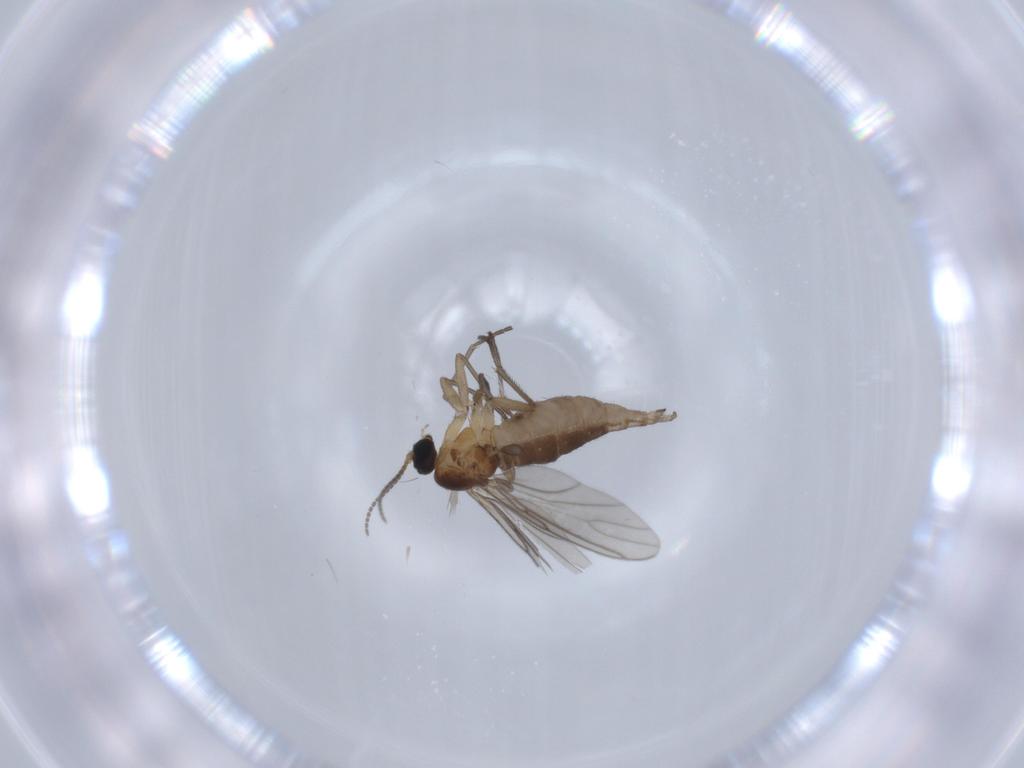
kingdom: Animalia
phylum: Arthropoda
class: Insecta
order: Diptera
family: Sciaridae
